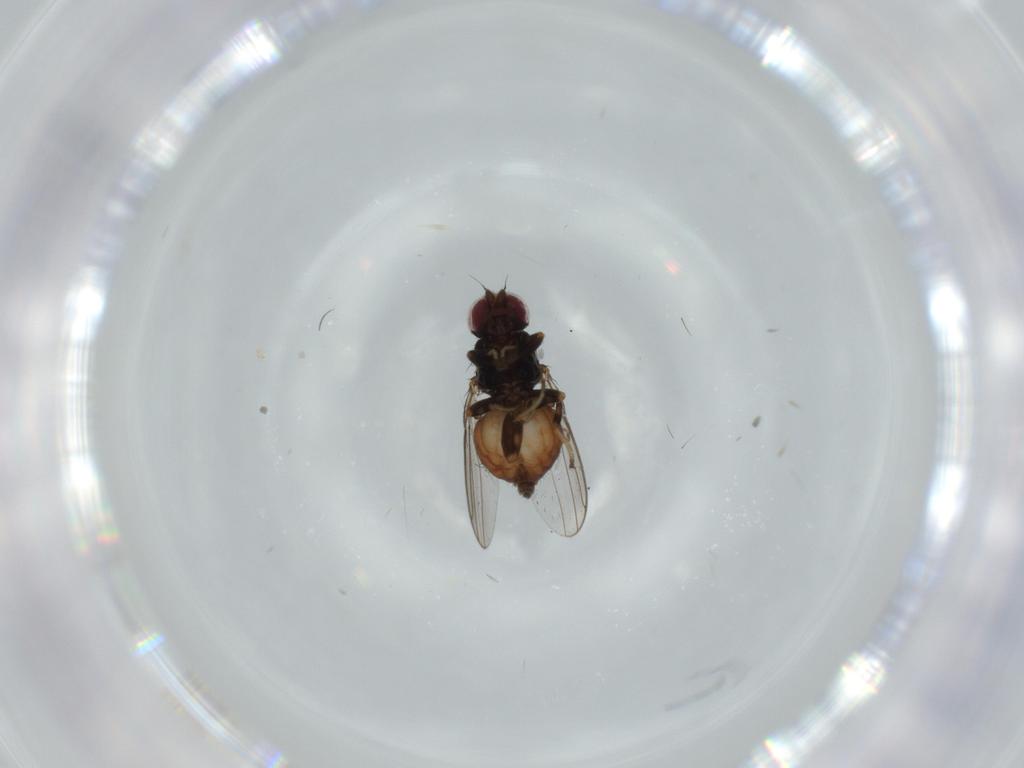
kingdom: Animalia
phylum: Arthropoda
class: Insecta
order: Diptera
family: Chloropidae
